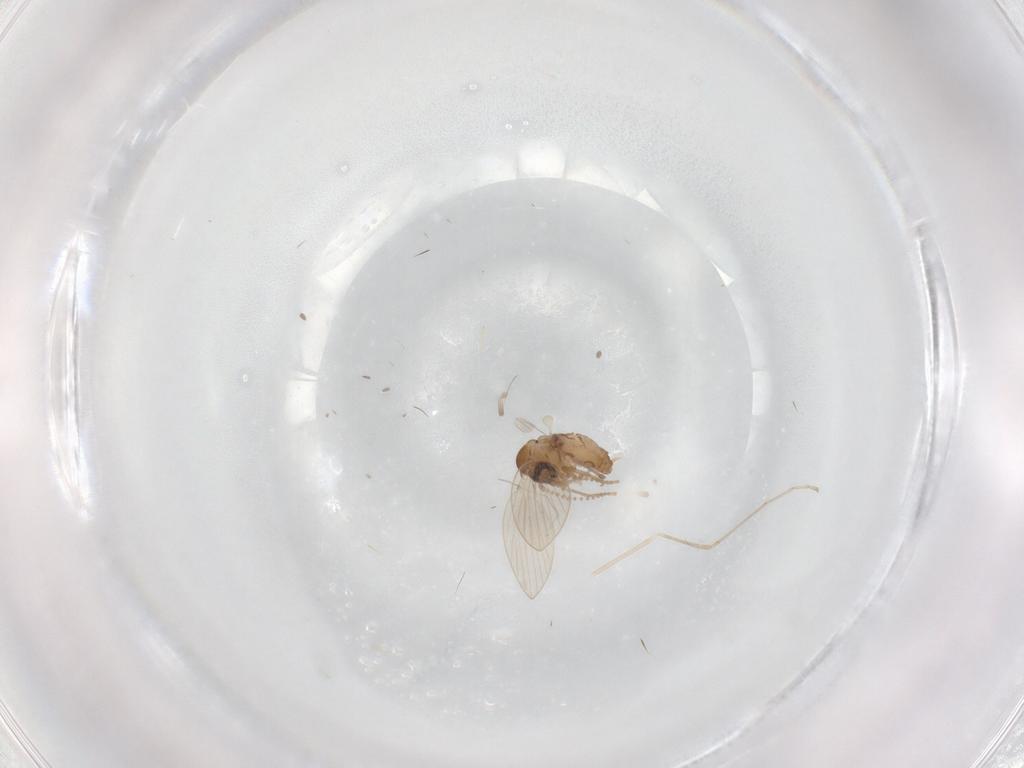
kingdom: Animalia
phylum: Arthropoda
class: Insecta
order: Diptera
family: Psychodidae
